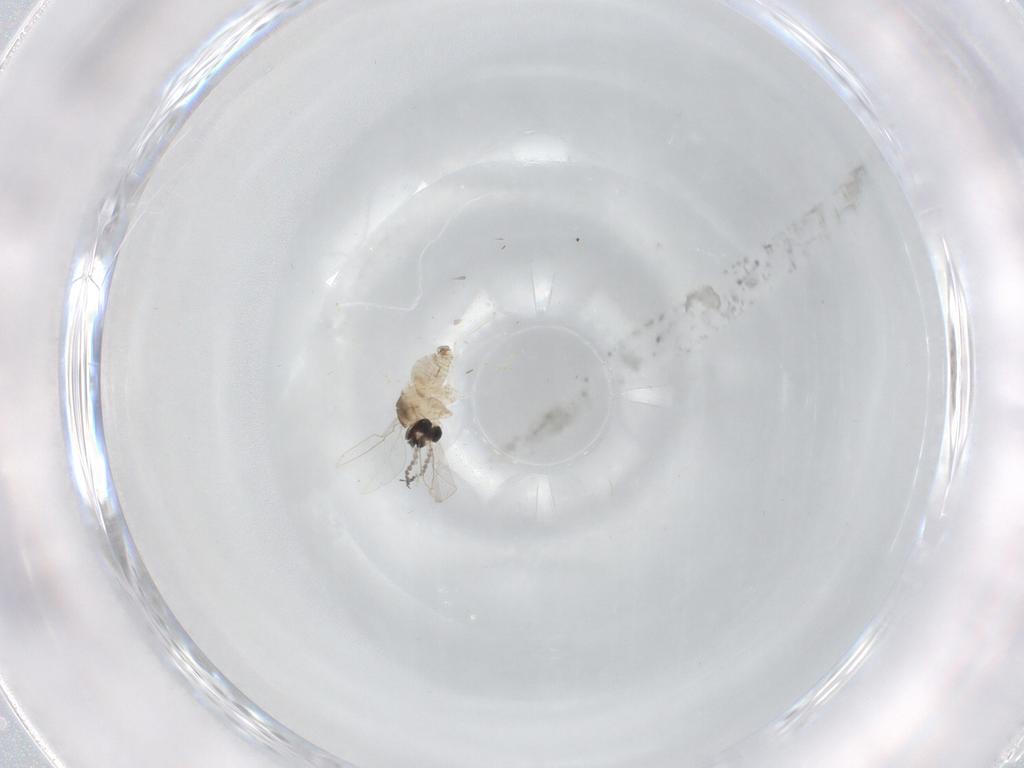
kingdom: Animalia
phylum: Arthropoda
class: Insecta
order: Diptera
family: Cecidomyiidae
